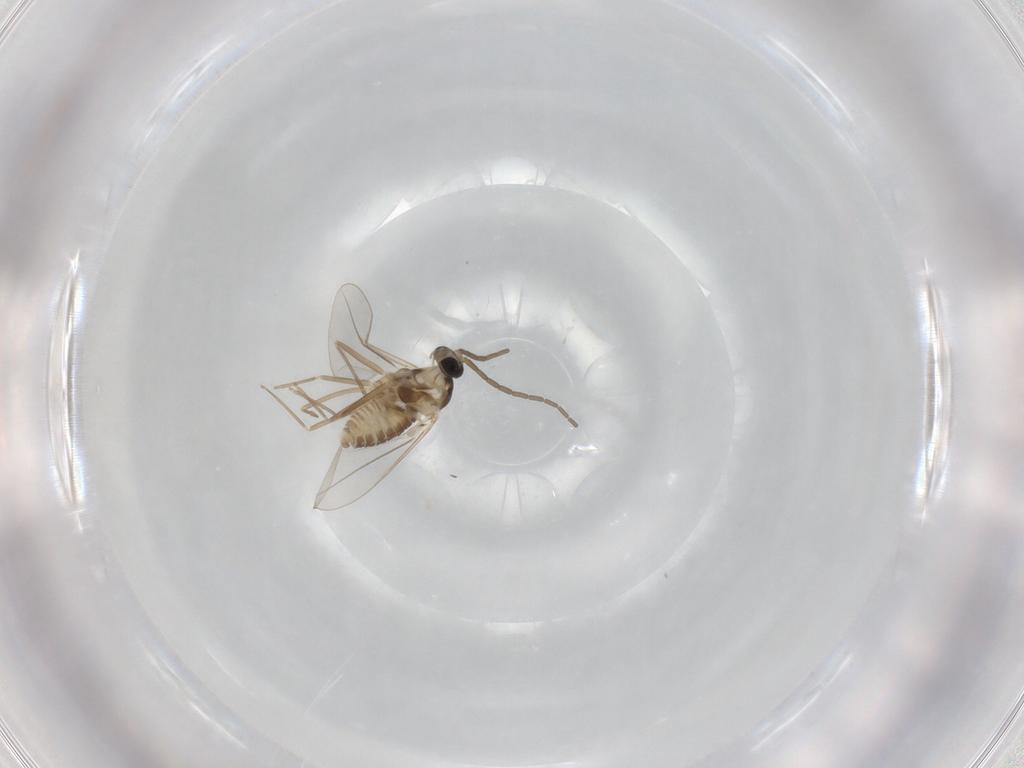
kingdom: Animalia
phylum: Arthropoda
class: Insecta
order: Diptera
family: Cecidomyiidae
